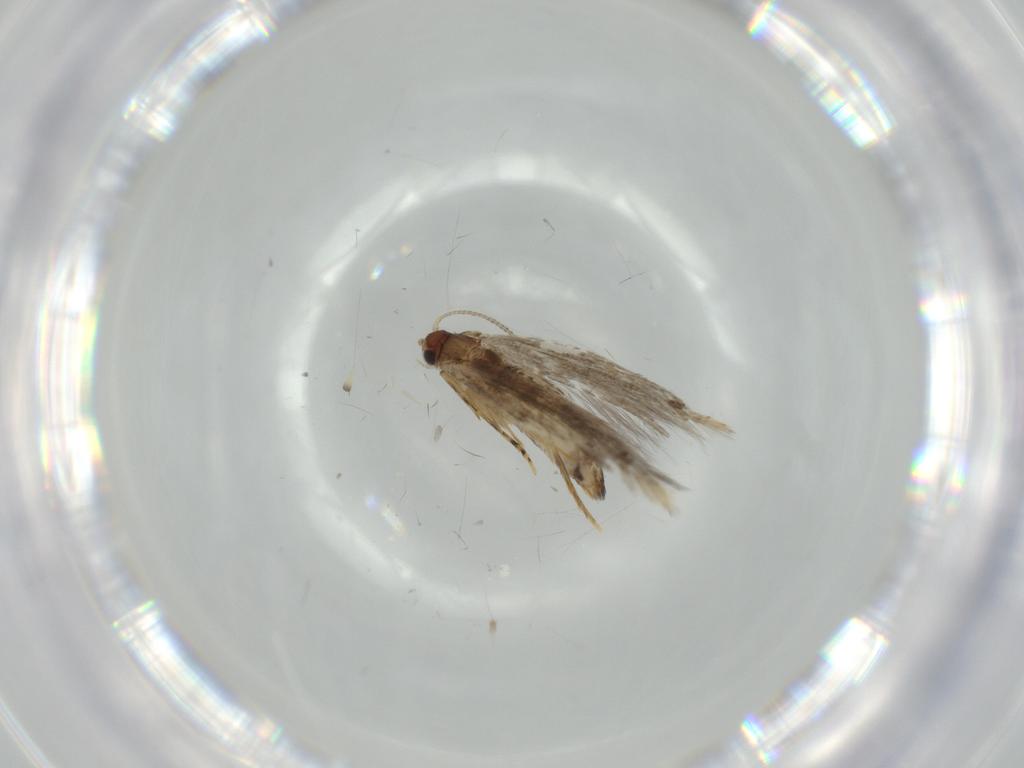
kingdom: Animalia
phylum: Arthropoda
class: Insecta
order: Lepidoptera
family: Tineidae
